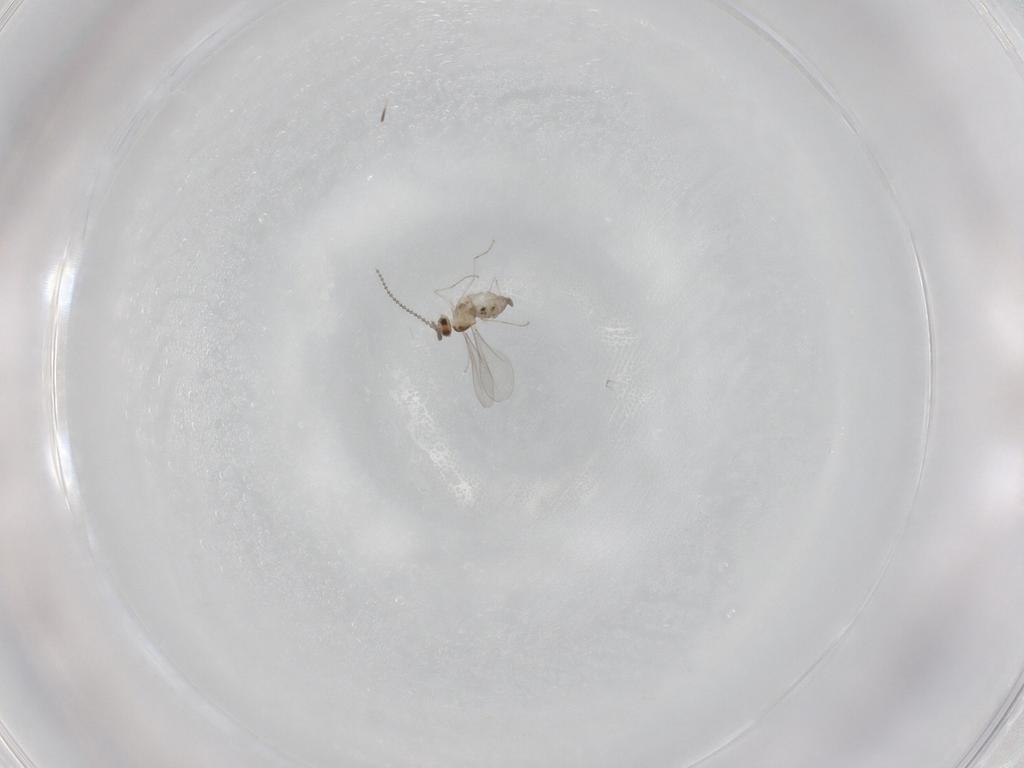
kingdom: Animalia
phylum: Arthropoda
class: Insecta
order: Diptera
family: Cecidomyiidae
